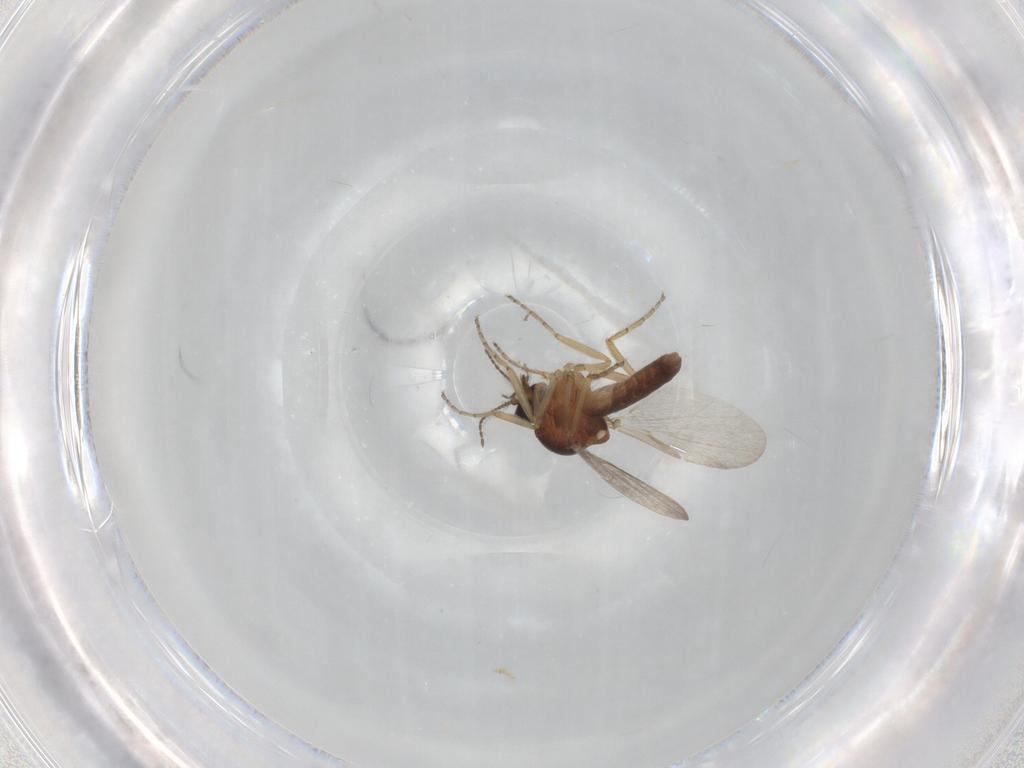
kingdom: Animalia
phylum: Arthropoda
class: Insecta
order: Diptera
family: Ceratopogonidae
